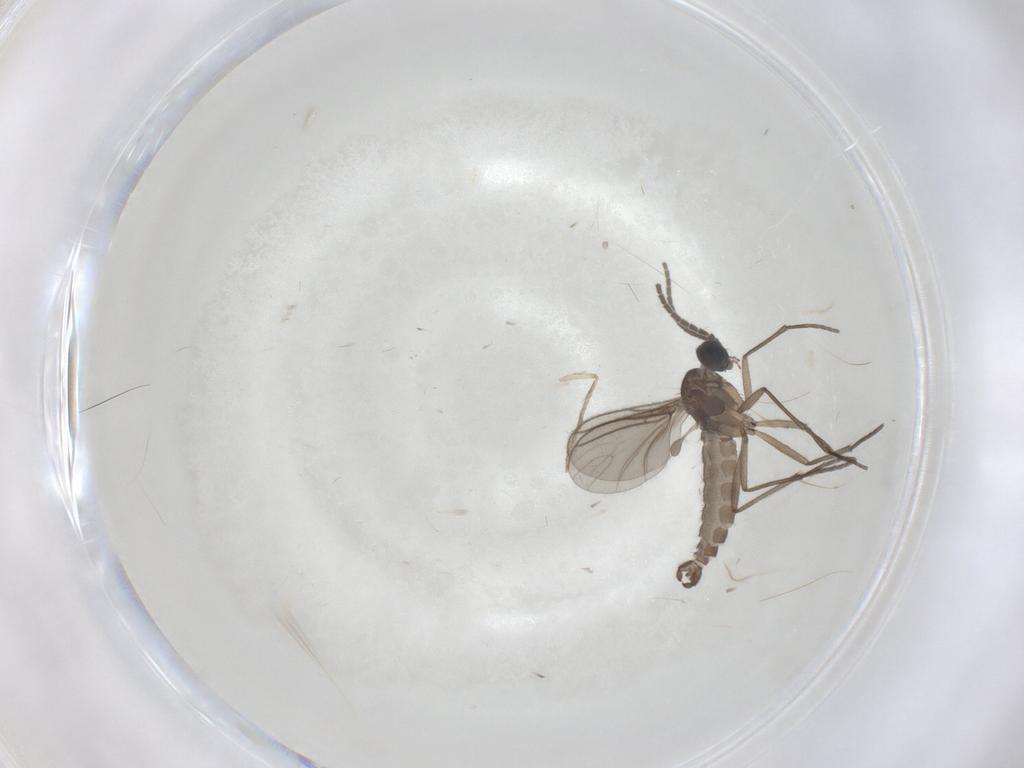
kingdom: Animalia
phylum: Arthropoda
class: Insecta
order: Diptera
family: Sciaridae
